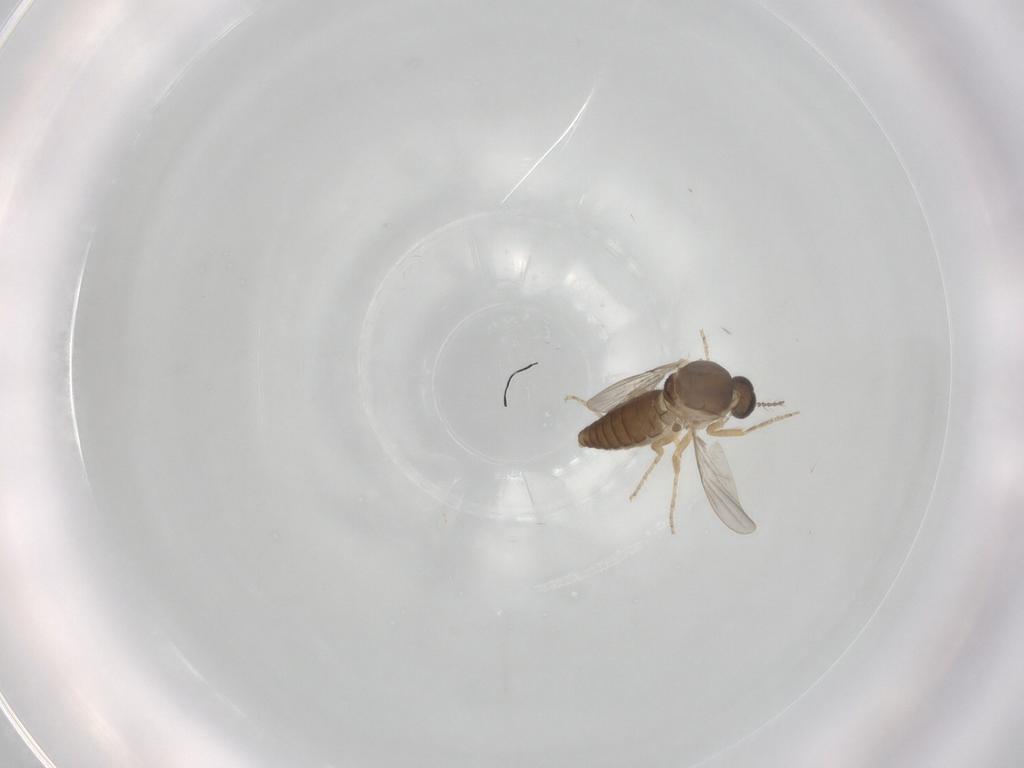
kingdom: Animalia
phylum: Arthropoda
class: Insecta
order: Diptera
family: Ceratopogonidae
